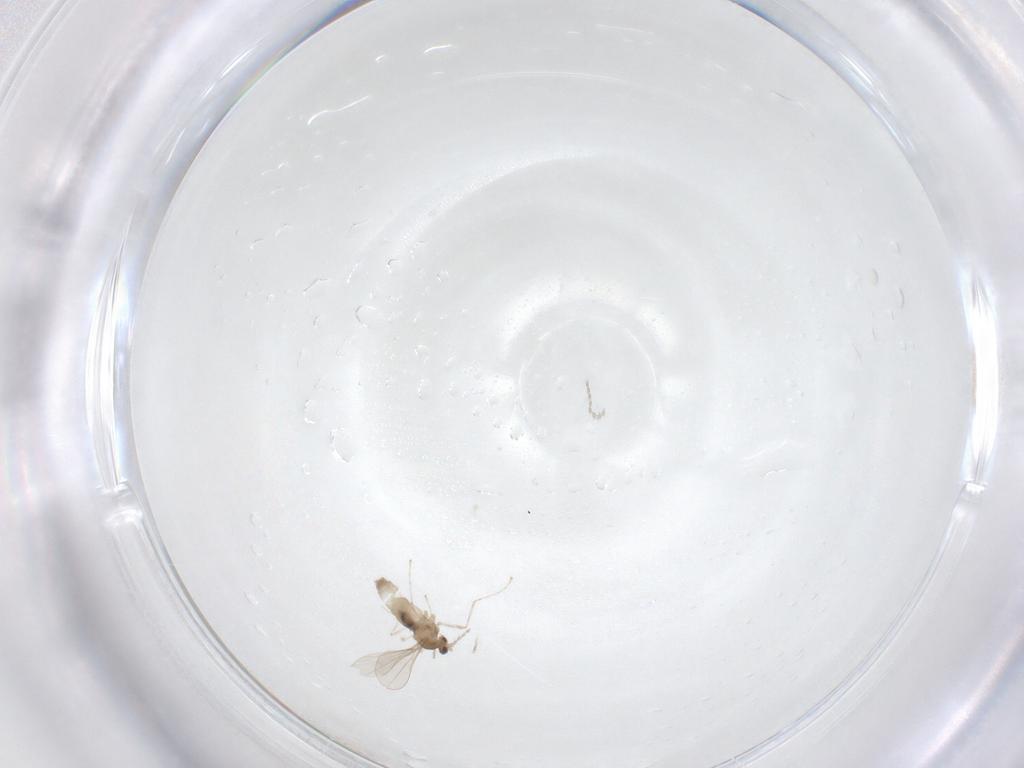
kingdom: Animalia
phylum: Arthropoda
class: Insecta
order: Diptera
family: Cecidomyiidae
